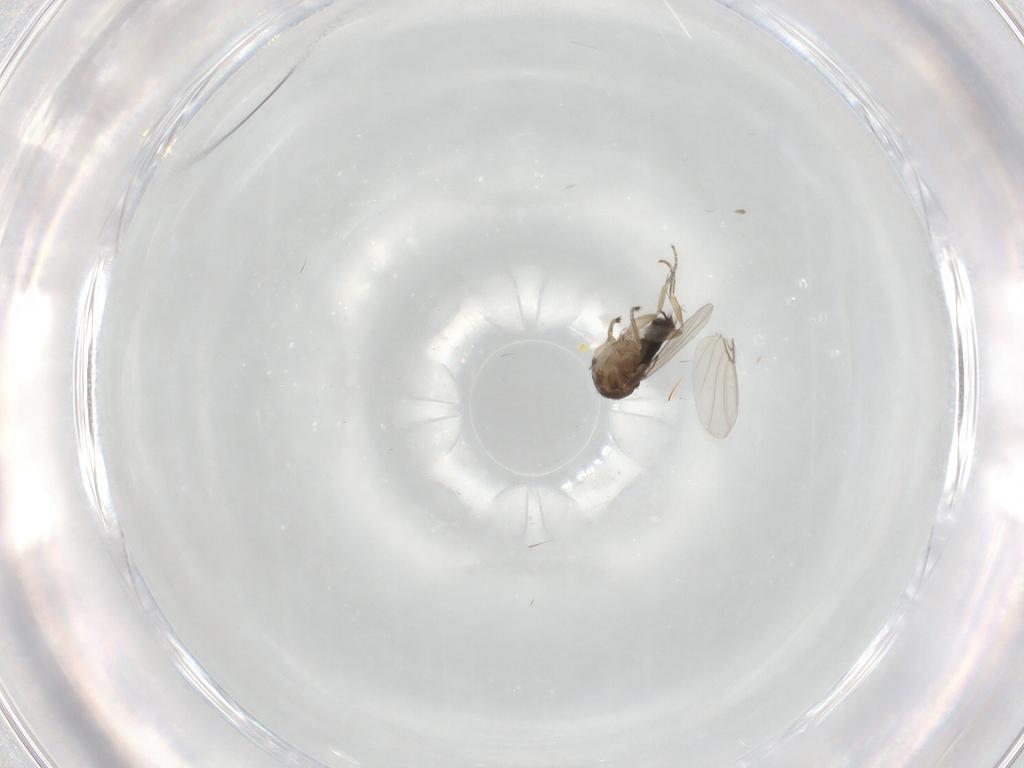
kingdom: Animalia
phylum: Arthropoda
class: Insecta
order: Diptera
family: Phoridae
